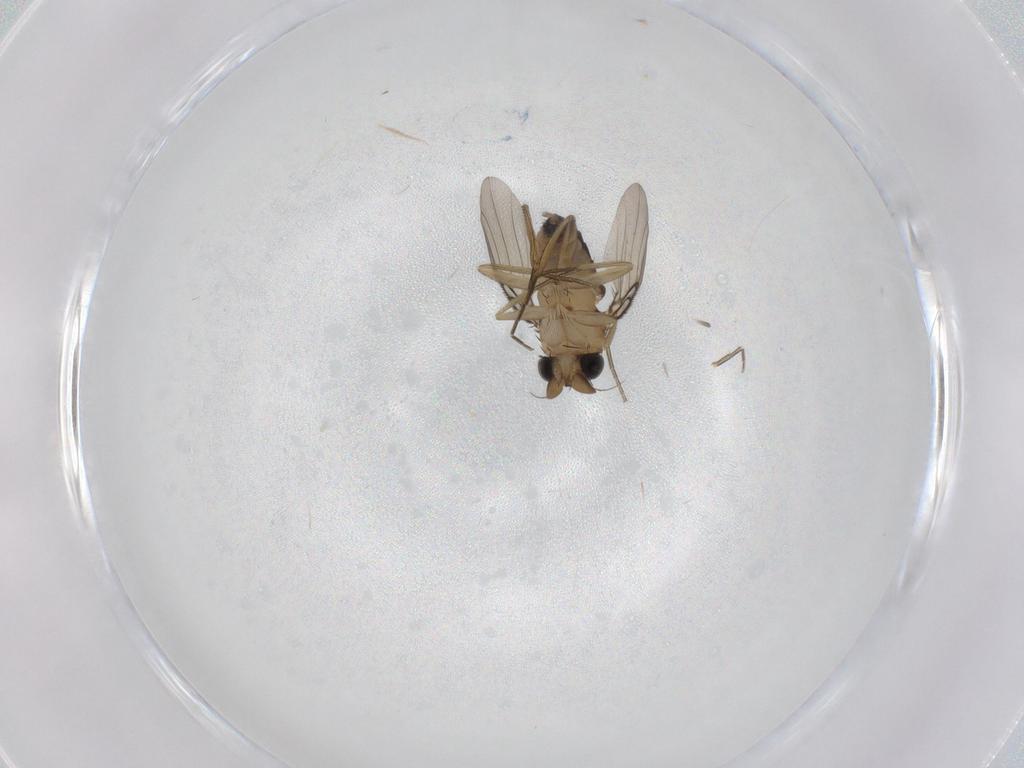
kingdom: Animalia
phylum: Arthropoda
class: Insecta
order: Diptera
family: Phoridae
